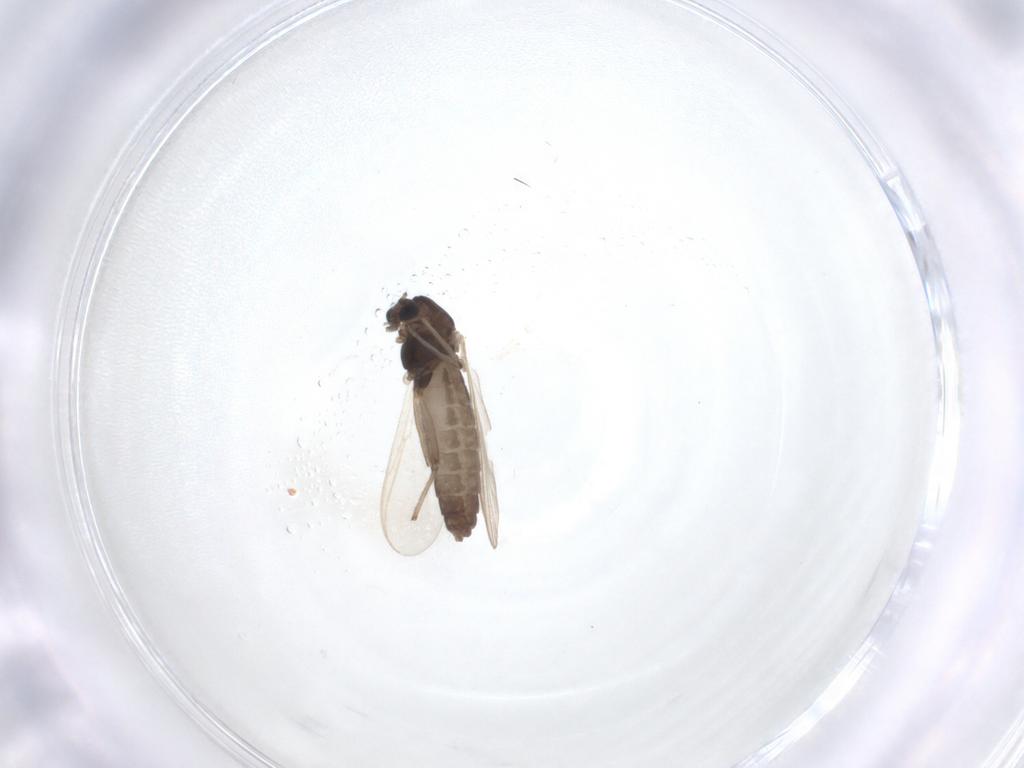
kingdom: Animalia
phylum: Arthropoda
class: Insecta
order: Diptera
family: Chironomidae
